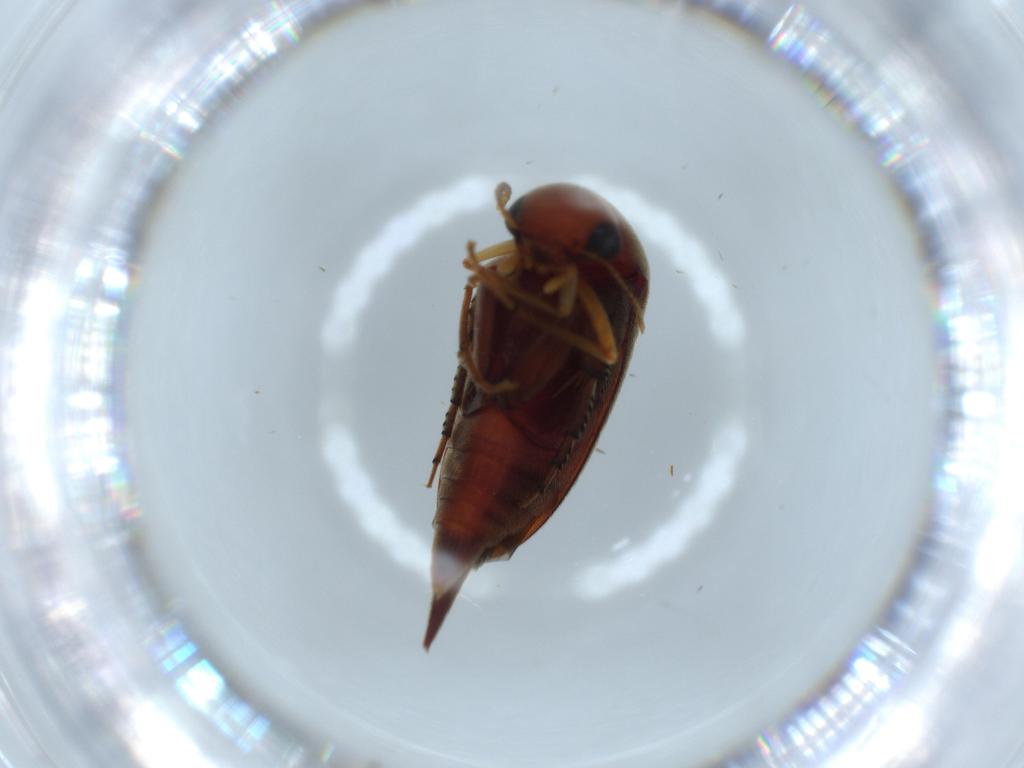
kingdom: Animalia
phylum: Arthropoda
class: Insecta
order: Coleoptera
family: Mordellidae
